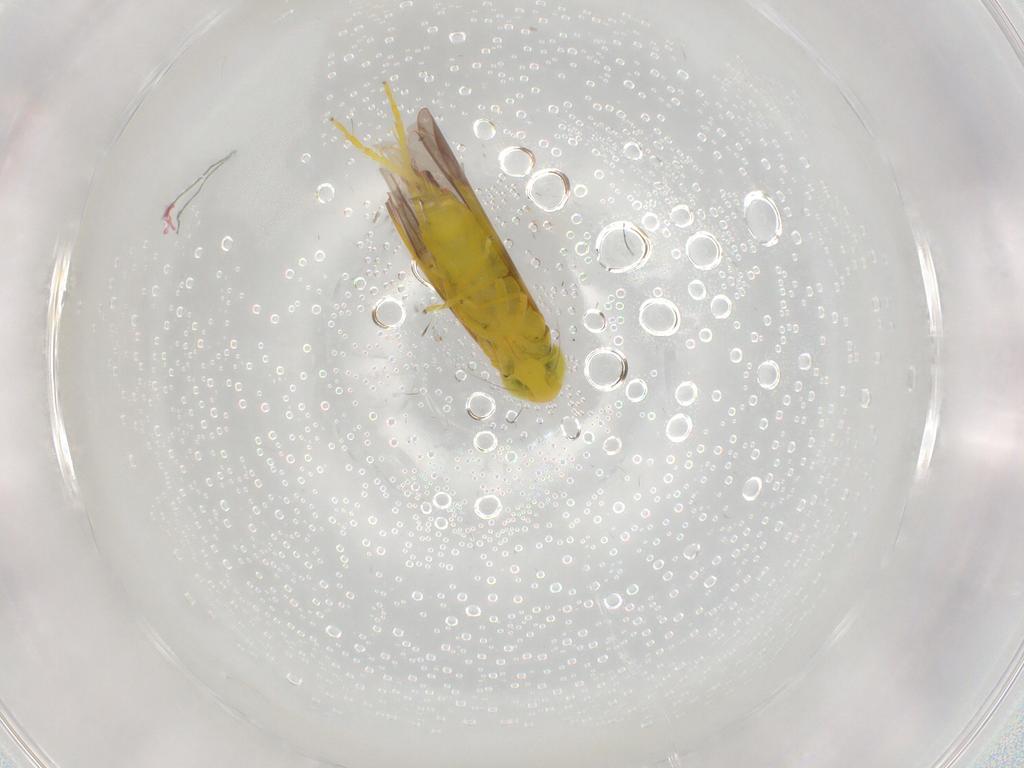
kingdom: Animalia
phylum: Arthropoda
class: Insecta
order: Hemiptera
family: Cicadellidae
